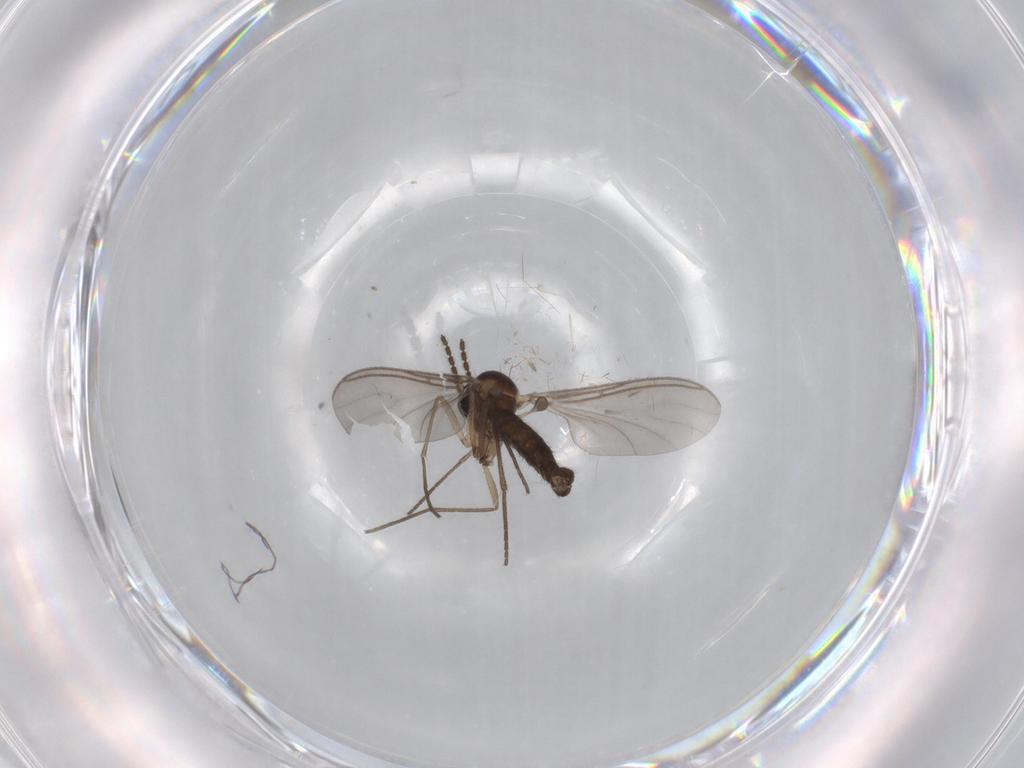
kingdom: Animalia
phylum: Arthropoda
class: Insecta
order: Diptera
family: Sciaridae
